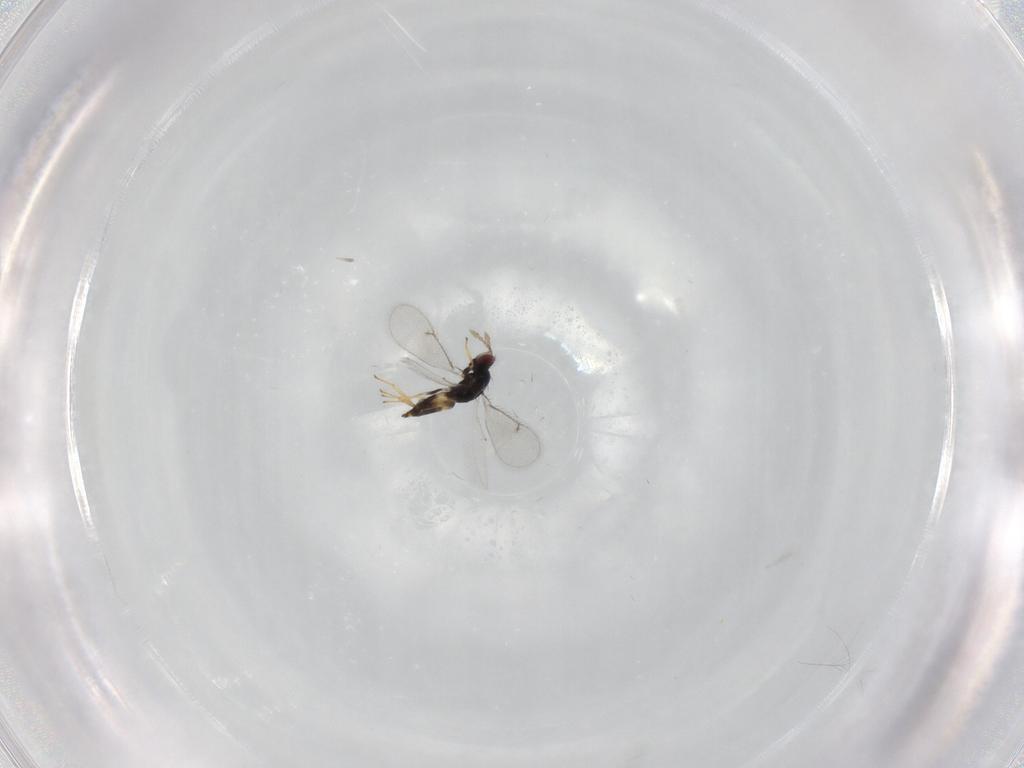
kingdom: Animalia
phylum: Arthropoda
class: Insecta
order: Hymenoptera
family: Eulophidae
